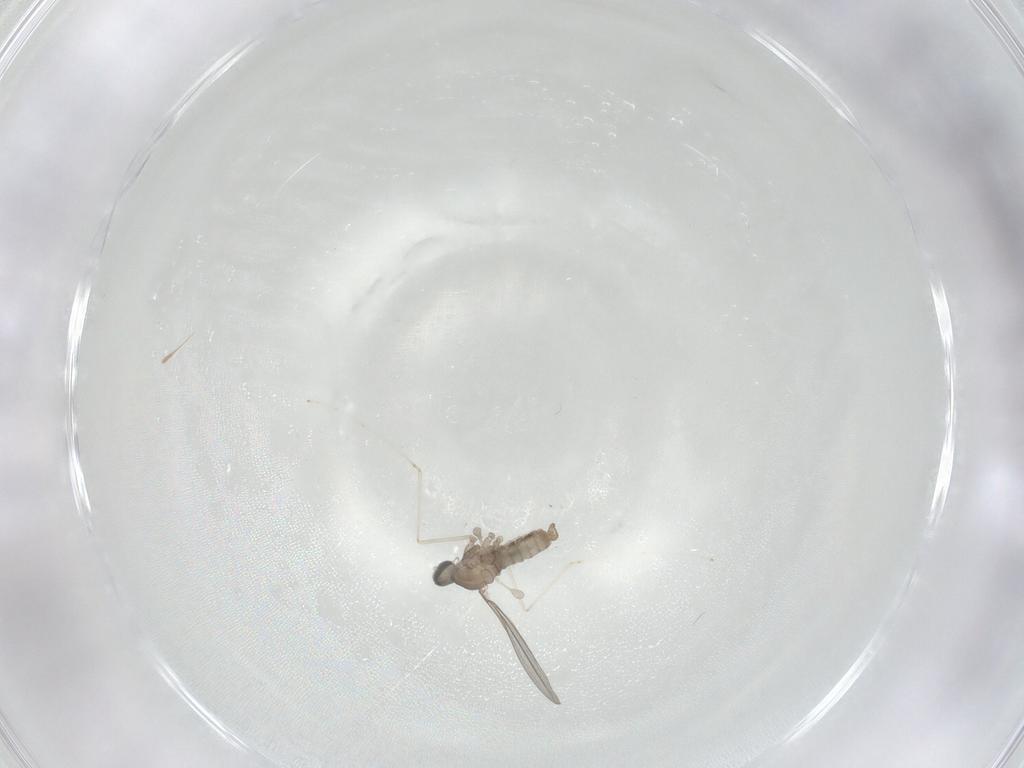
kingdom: Animalia
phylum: Arthropoda
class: Insecta
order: Diptera
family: Cecidomyiidae
